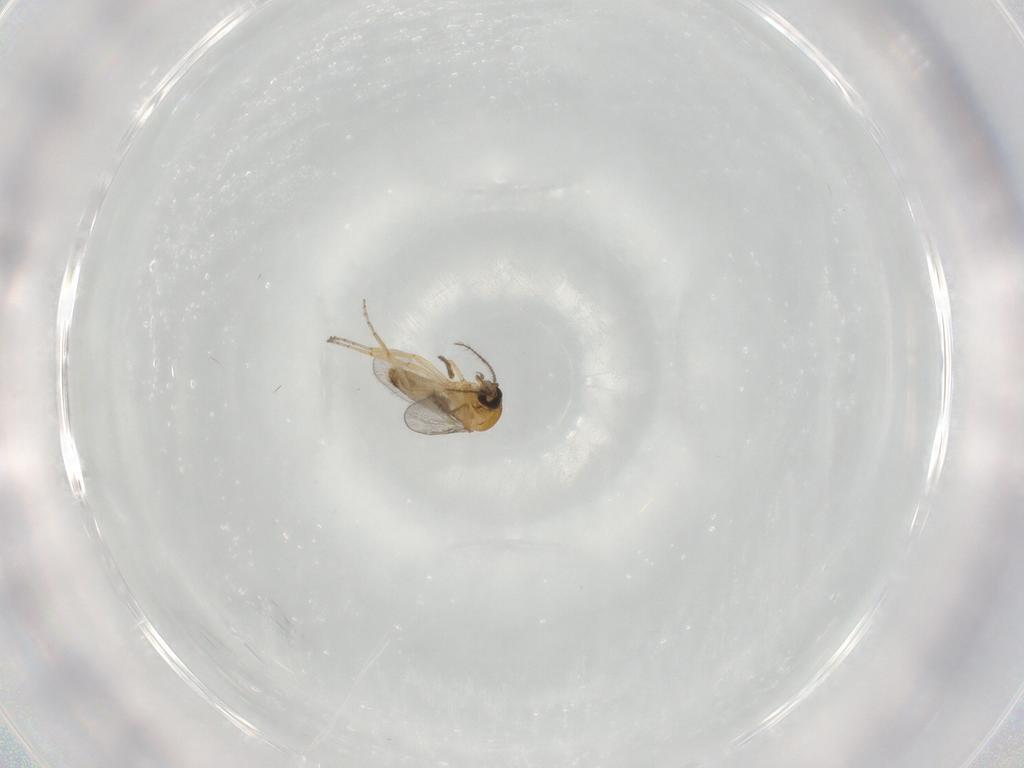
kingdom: Animalia
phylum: Arthropoda
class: Insecta
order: Diptera
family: Ceratopogonidae
